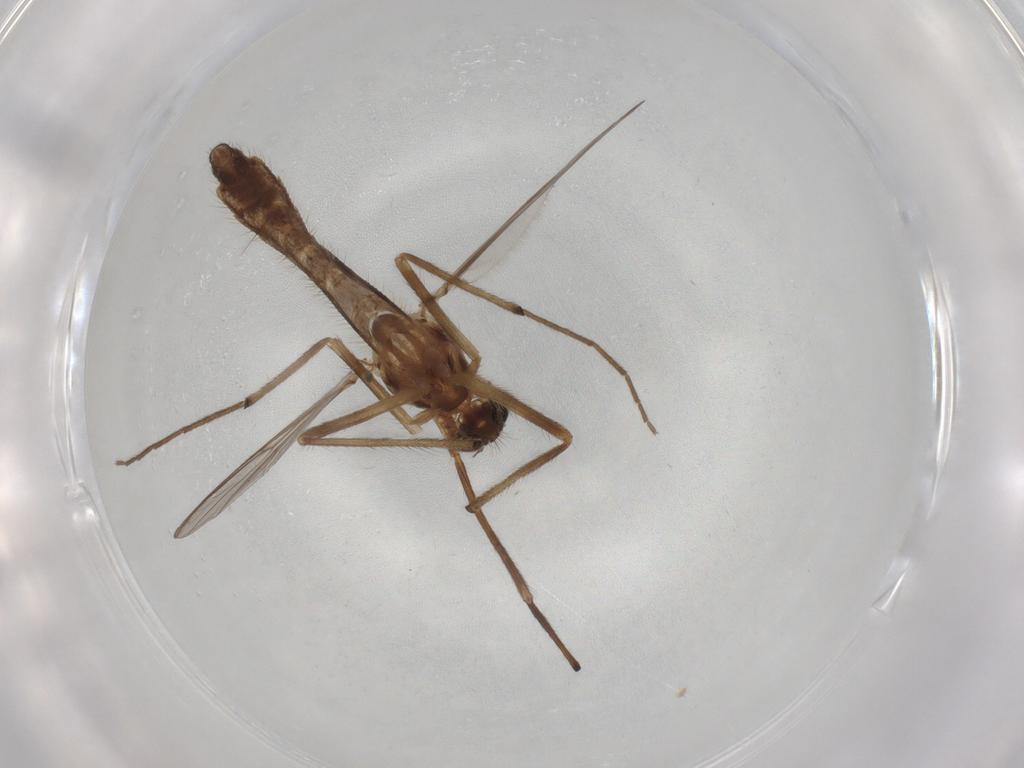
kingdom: Animalia
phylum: Arthropoda
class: Insecta
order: Diptera
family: Chironomidae
